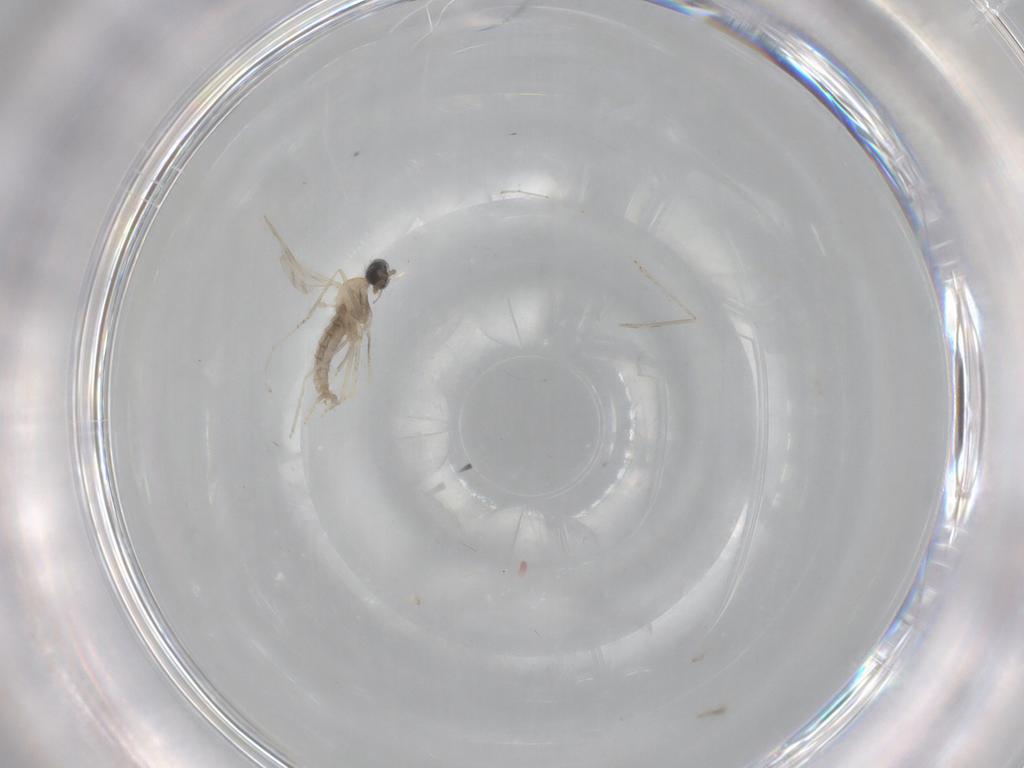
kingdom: Animalia
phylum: Arthropoda
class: Insecta
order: Diptera
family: Cecidomyiidae
